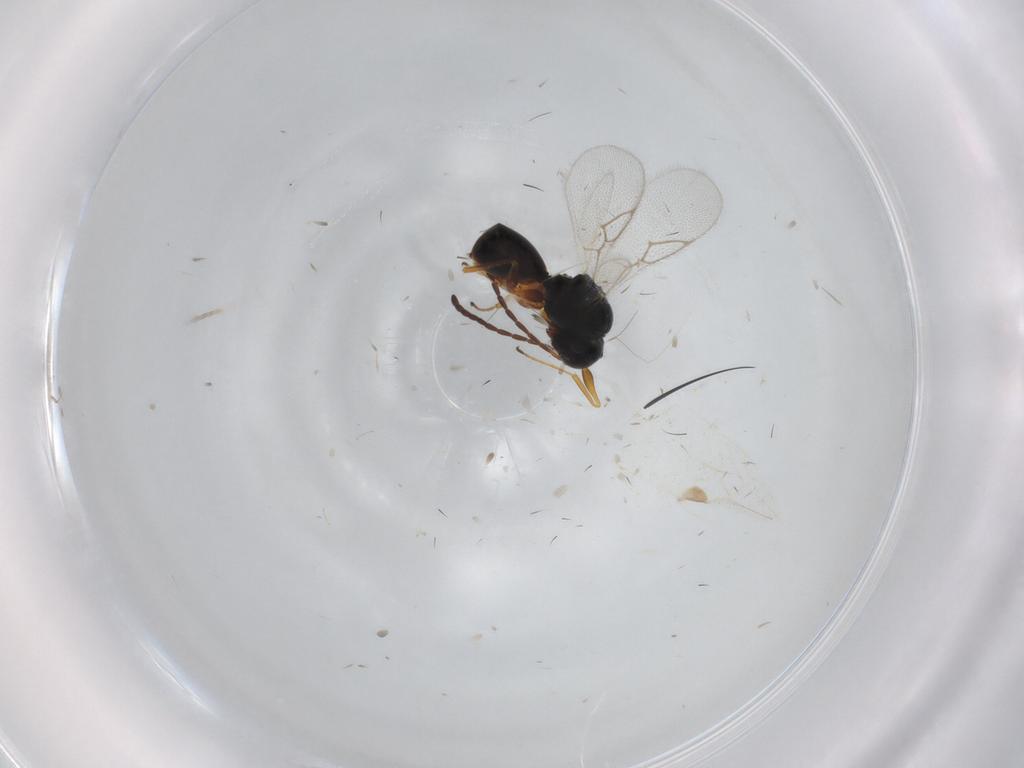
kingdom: Animalia
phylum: Arthropoda
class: Insecta
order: Hymenoptera
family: Figitidae
